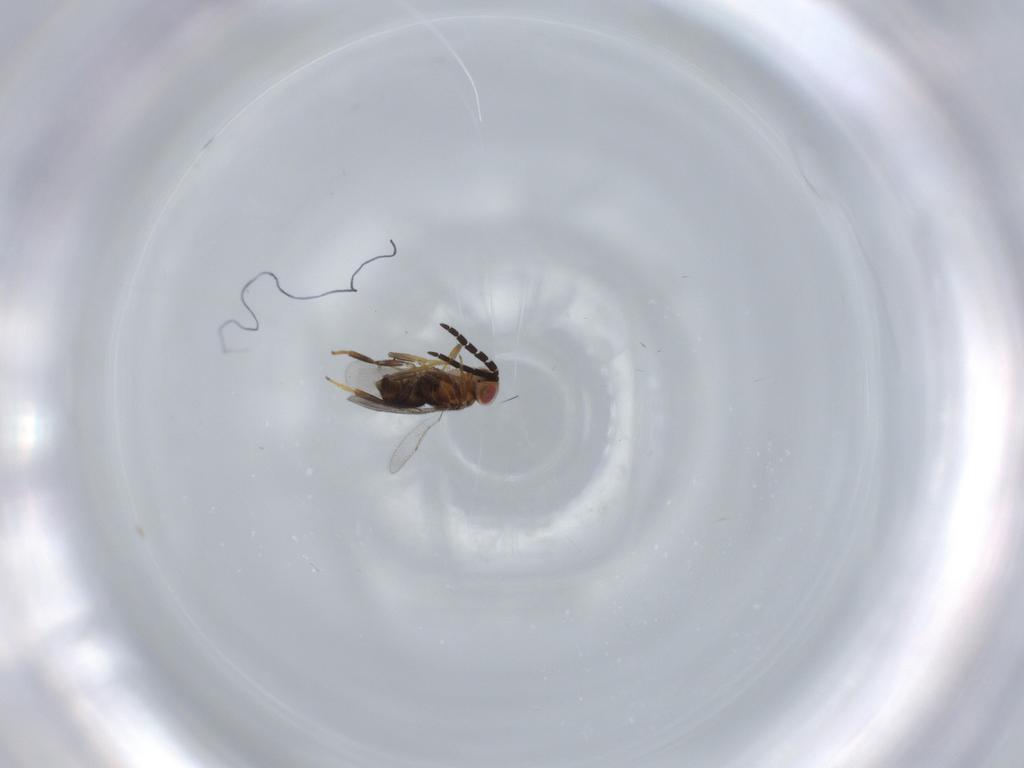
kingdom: Animalia
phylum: Arthropoda
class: Insecta
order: Hymenoptera
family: Aphelinidae
